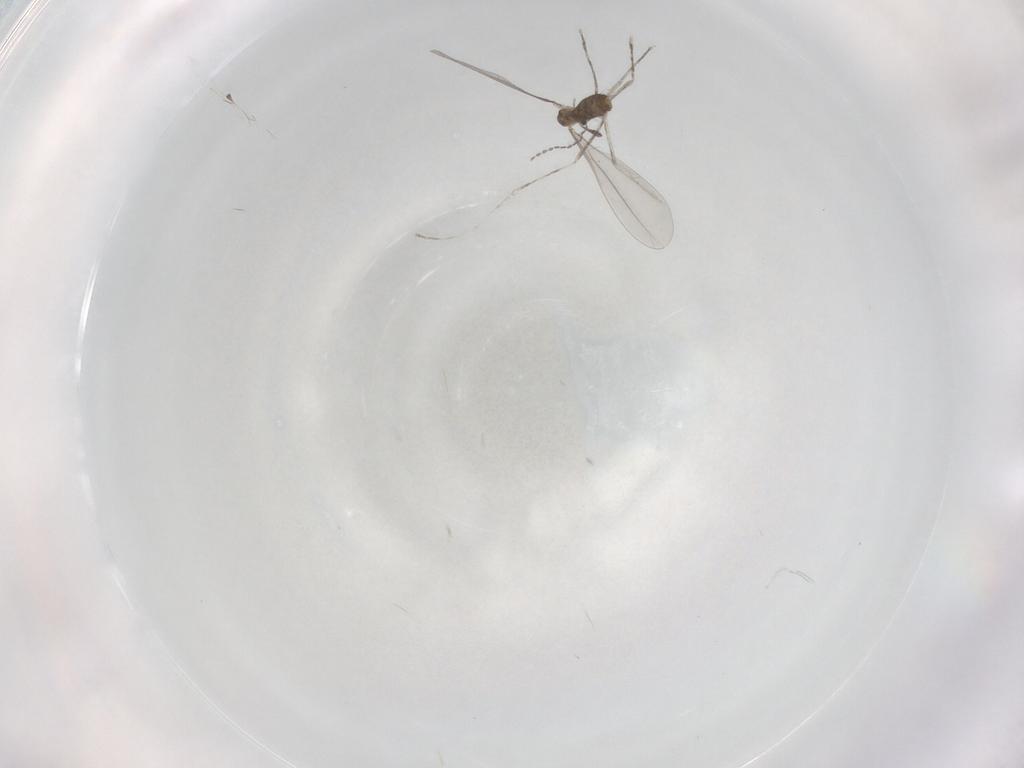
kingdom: Animalia
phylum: Arthropoda
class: Insecta
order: Diptera
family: Cecidomyiidae
